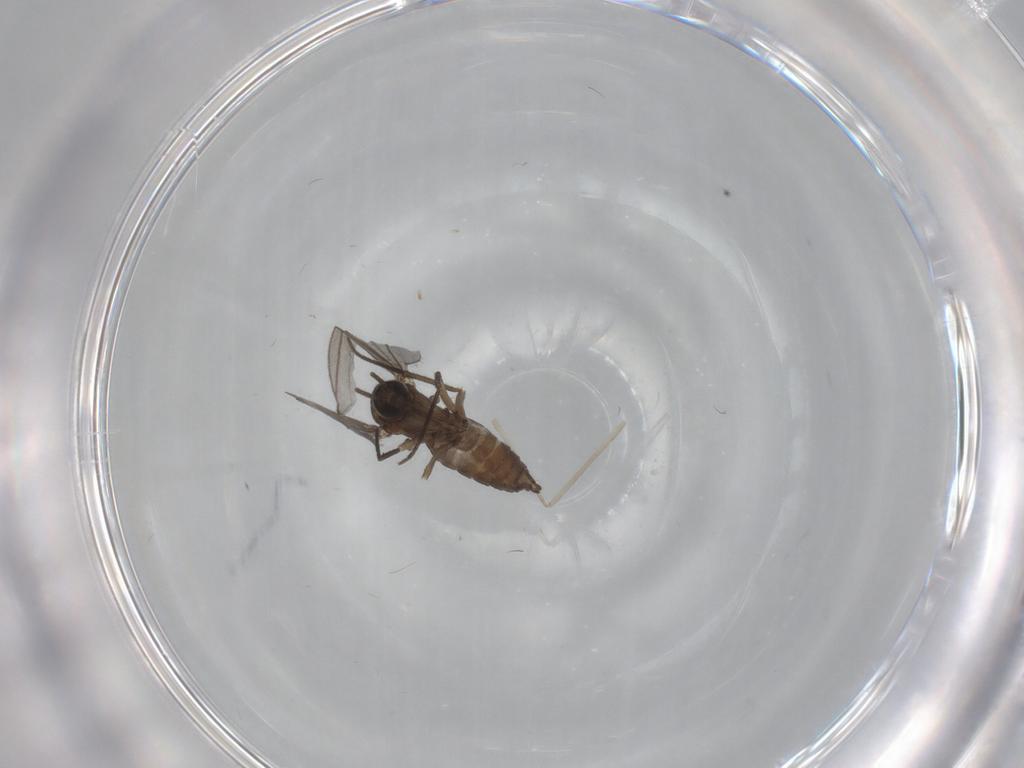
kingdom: Animalia
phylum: Arthropoda
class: Insecta
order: Diptera
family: Sciaridae
